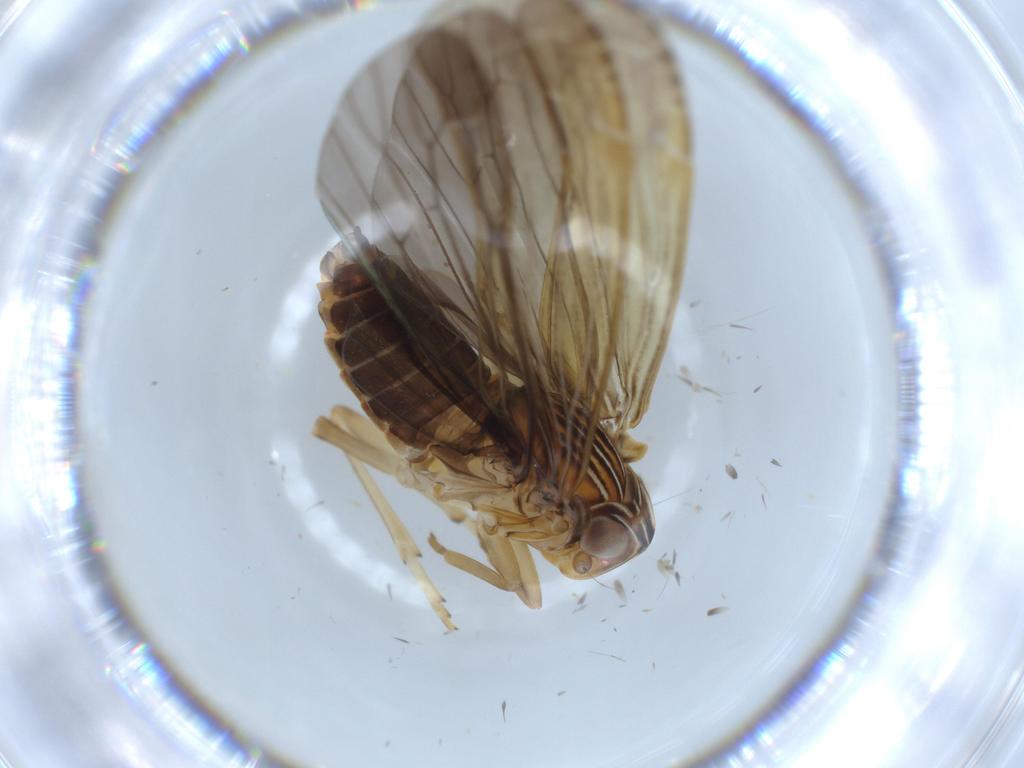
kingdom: Animalia
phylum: Arthropoda
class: Insecta
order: Hemiptera
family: Achilidae
